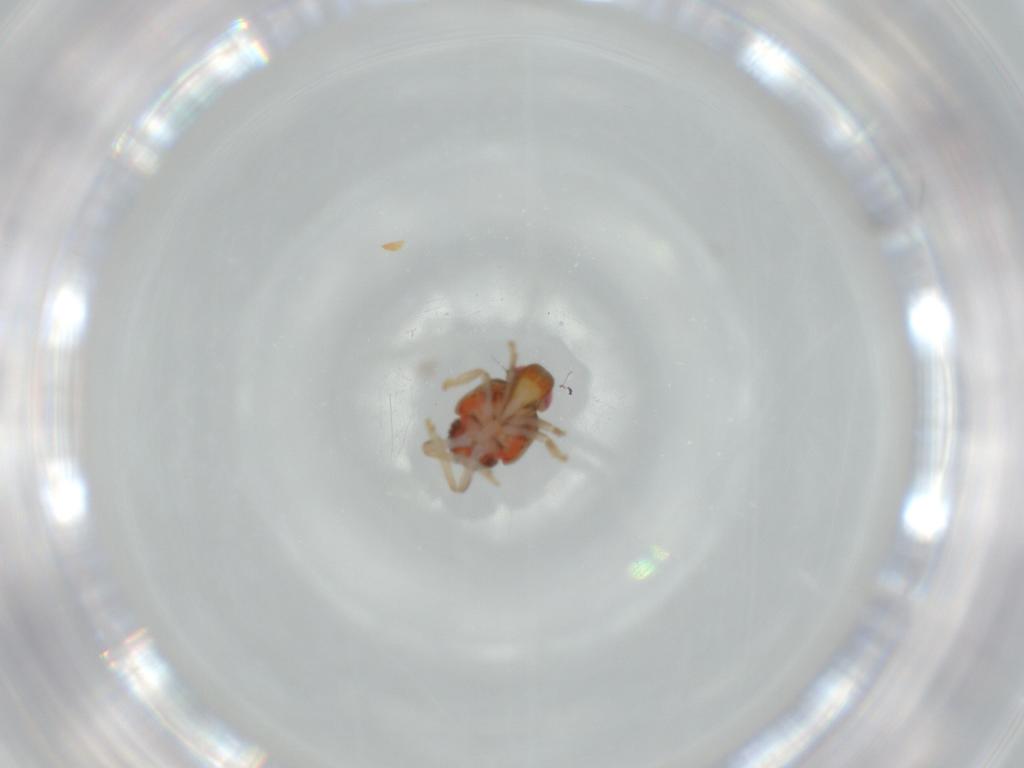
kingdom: Animalia
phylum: Arthropoda
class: Insecta
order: Hemiptera
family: Issidae
